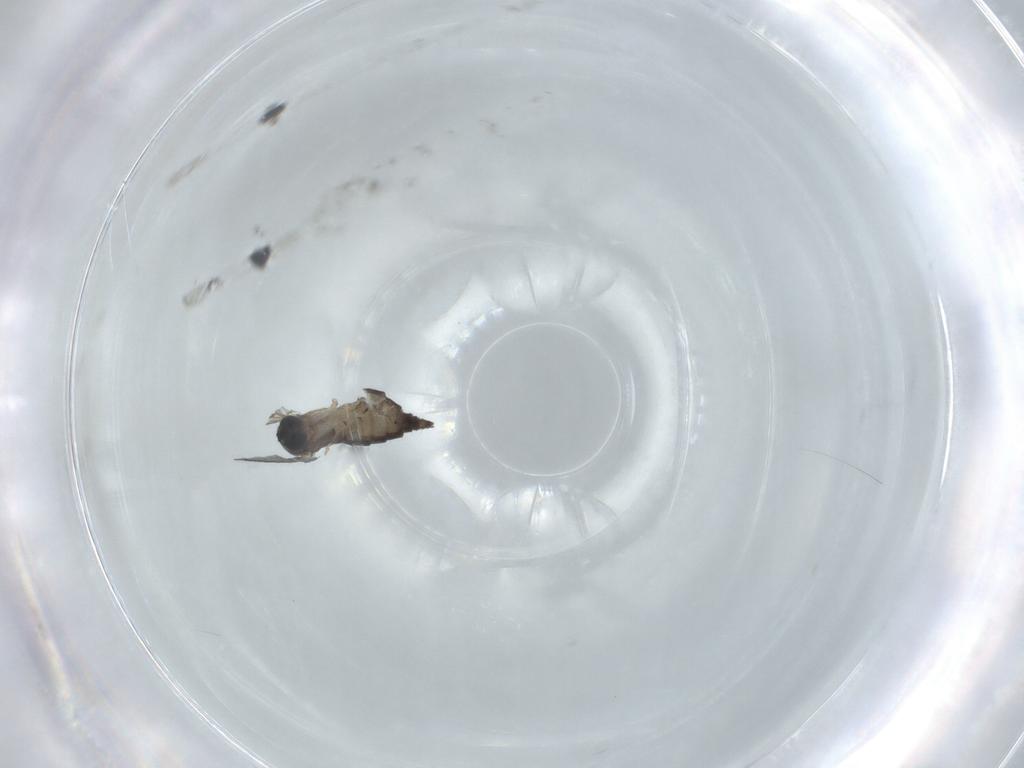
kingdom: Animalia
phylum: Arthropoda
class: Insecta
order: Diptera
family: Sciaridae
